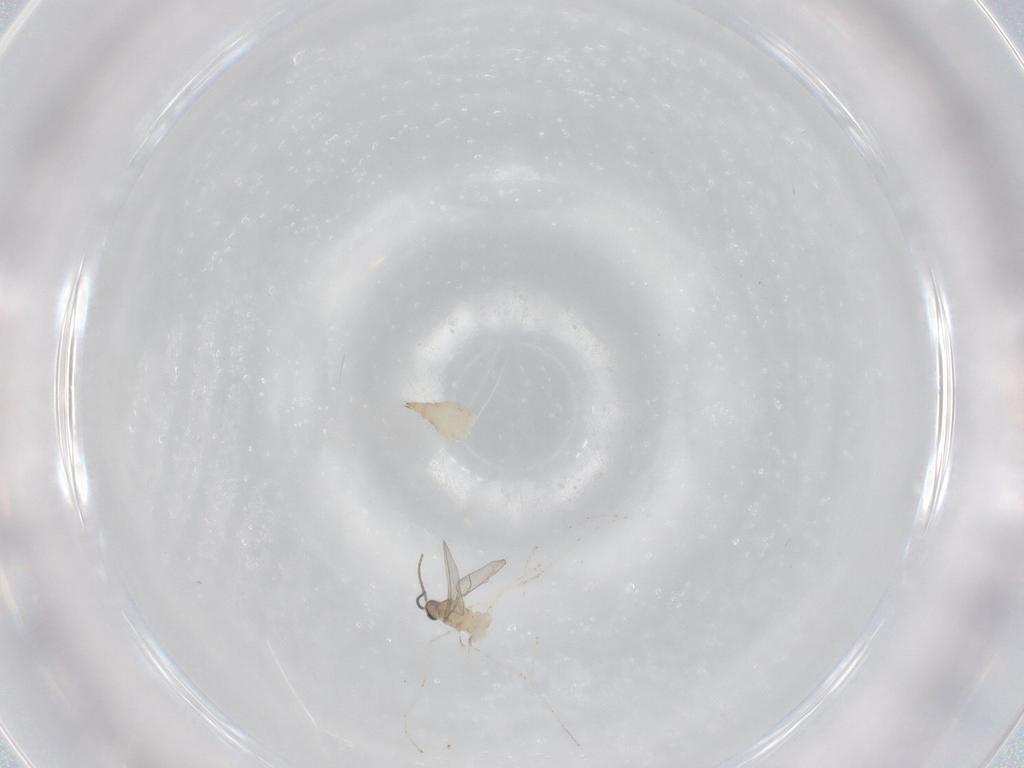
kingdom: Animalia
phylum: Arthropoda
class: Insecta
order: Diptera
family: Cecidomyiidae
